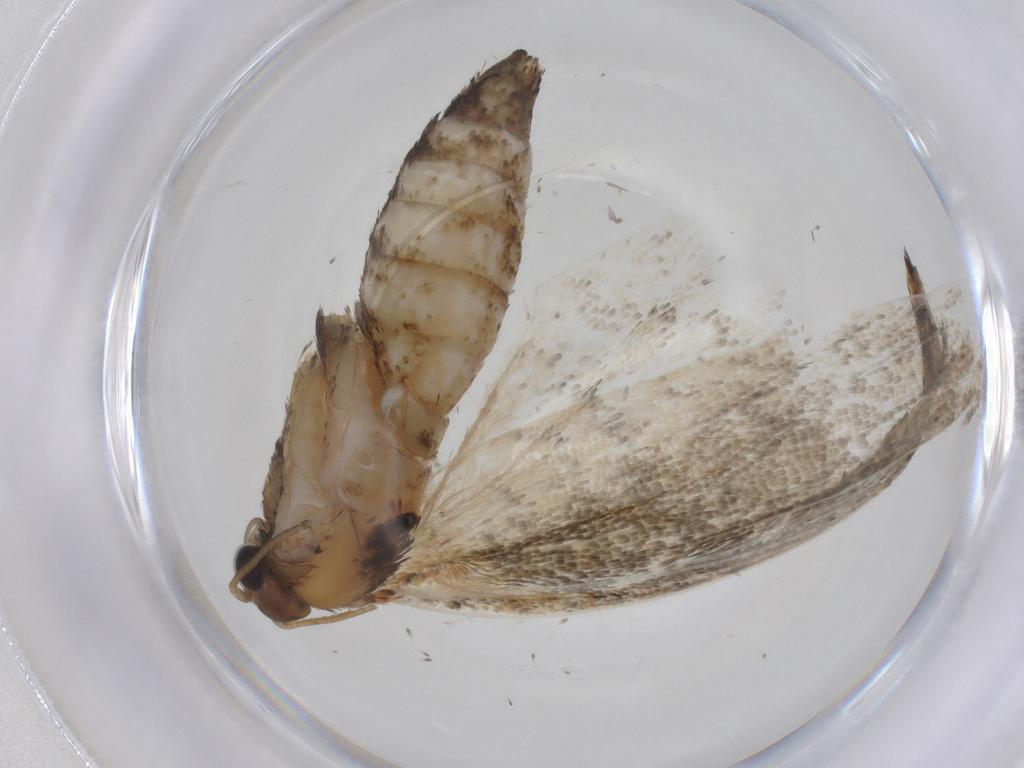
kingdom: Animalia
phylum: Arthropoda
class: Insecta
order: Lepidoptera
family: Tortricidae
